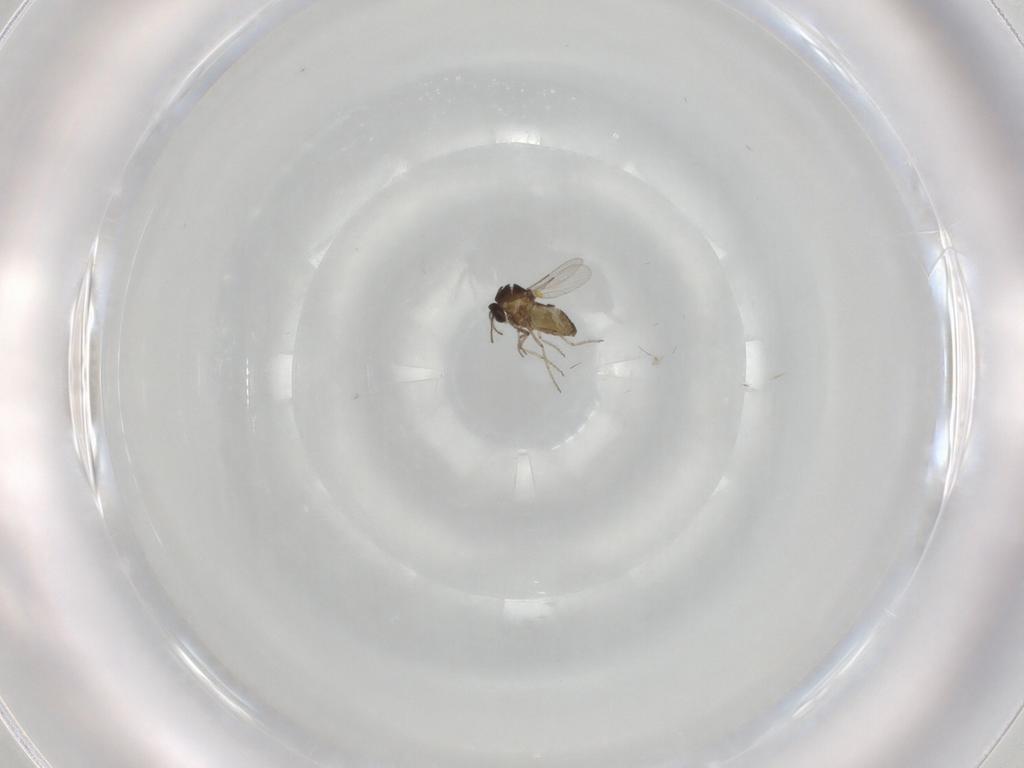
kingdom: Animalia
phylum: Arthropoda
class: Insecta
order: Diptera
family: Ceratopogonidae
